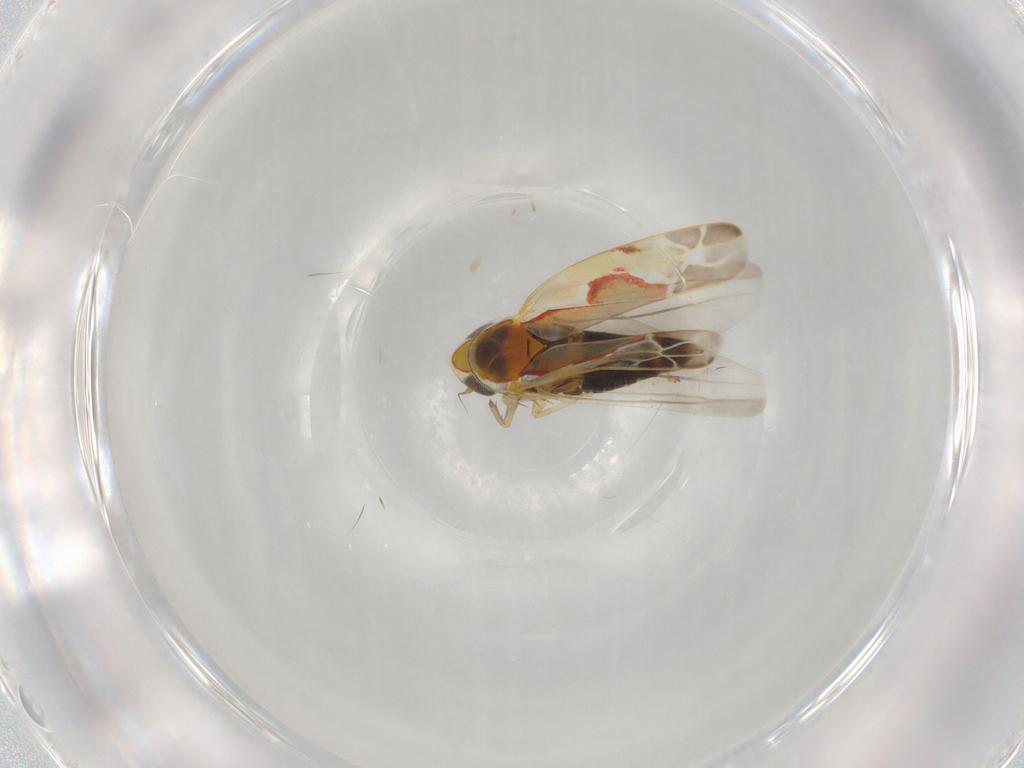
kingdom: Animalia
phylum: Arthropoda
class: Insecta
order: Hemiptera
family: Cicadellidae
